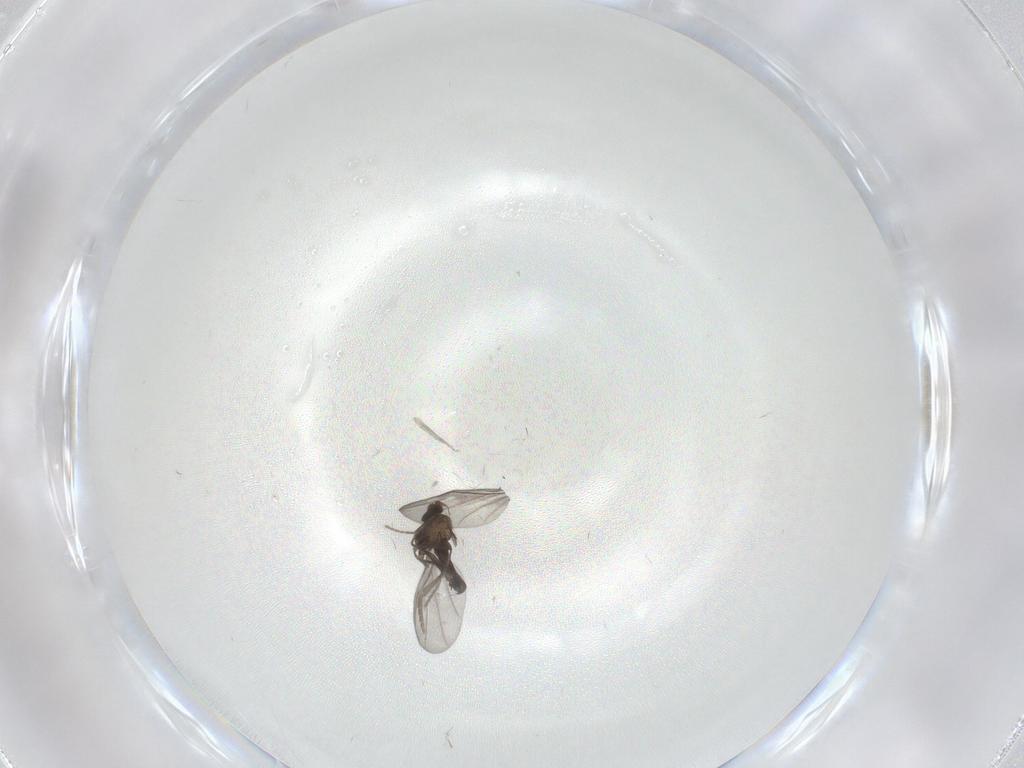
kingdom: Animalia
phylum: Arthropoda
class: Insecta
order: Diptera
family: Phoridae
